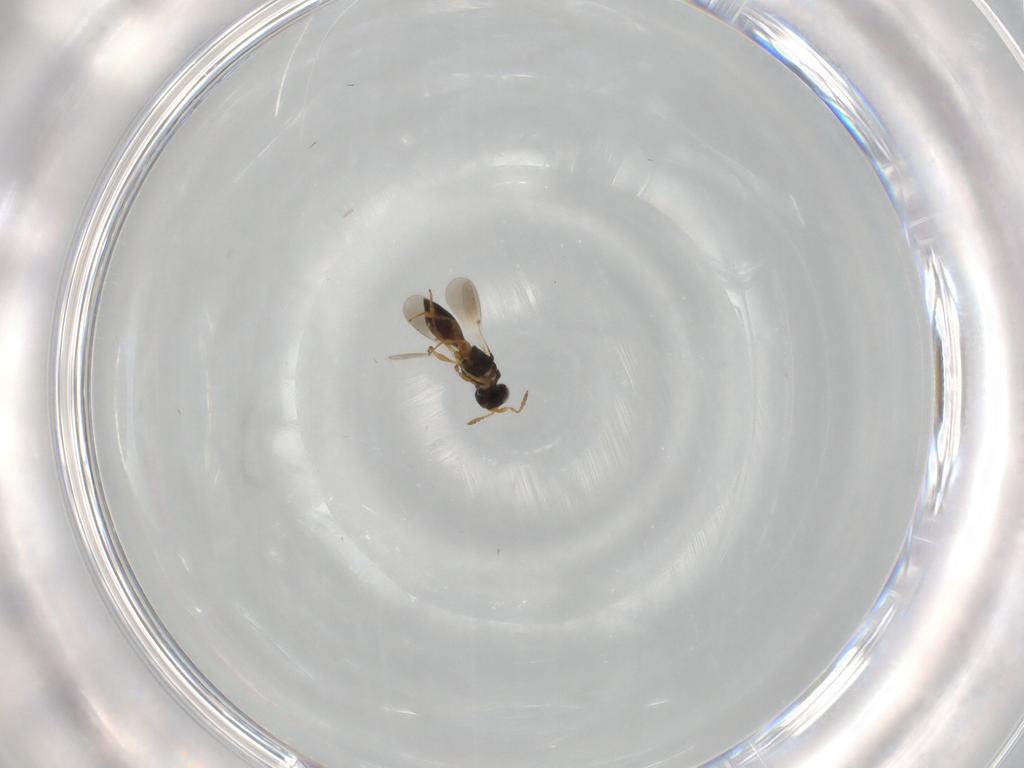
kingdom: Animalia
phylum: Arthropoda
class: Insecta
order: Hymenoptera
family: Platygastridae
